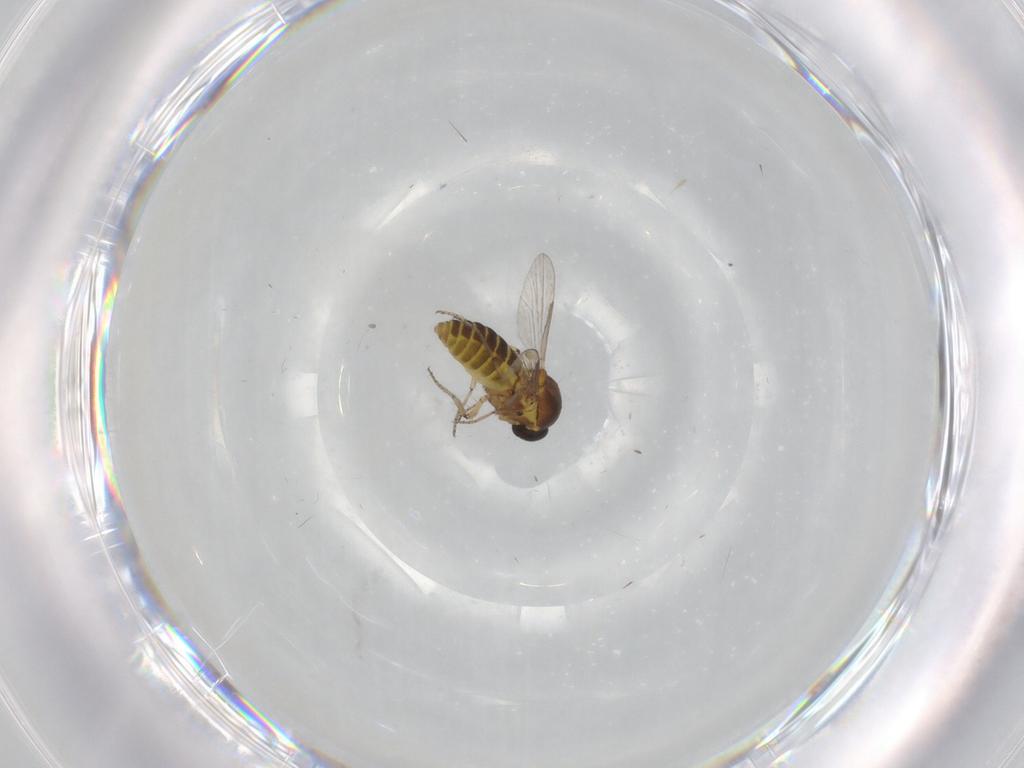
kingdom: Animalia
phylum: Arthropoda
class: Insecta
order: Diptera
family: Ceratopogonidae
